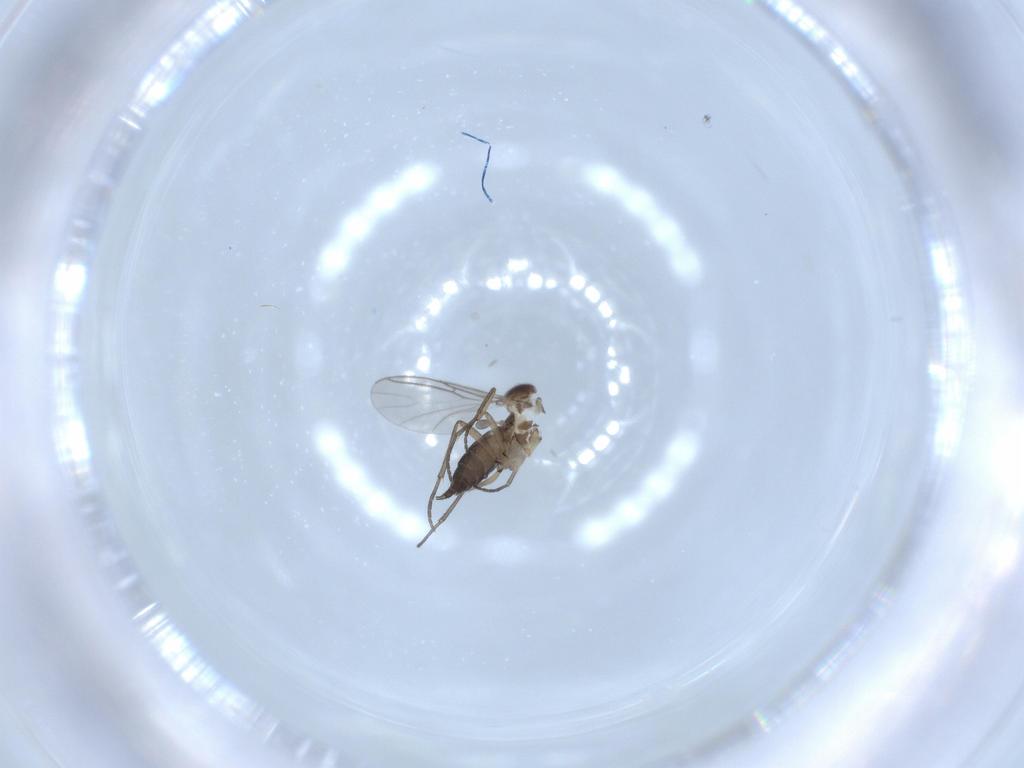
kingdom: Animalia
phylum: Arthropoda
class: Insecta
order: Diptera
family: Sciaridae
